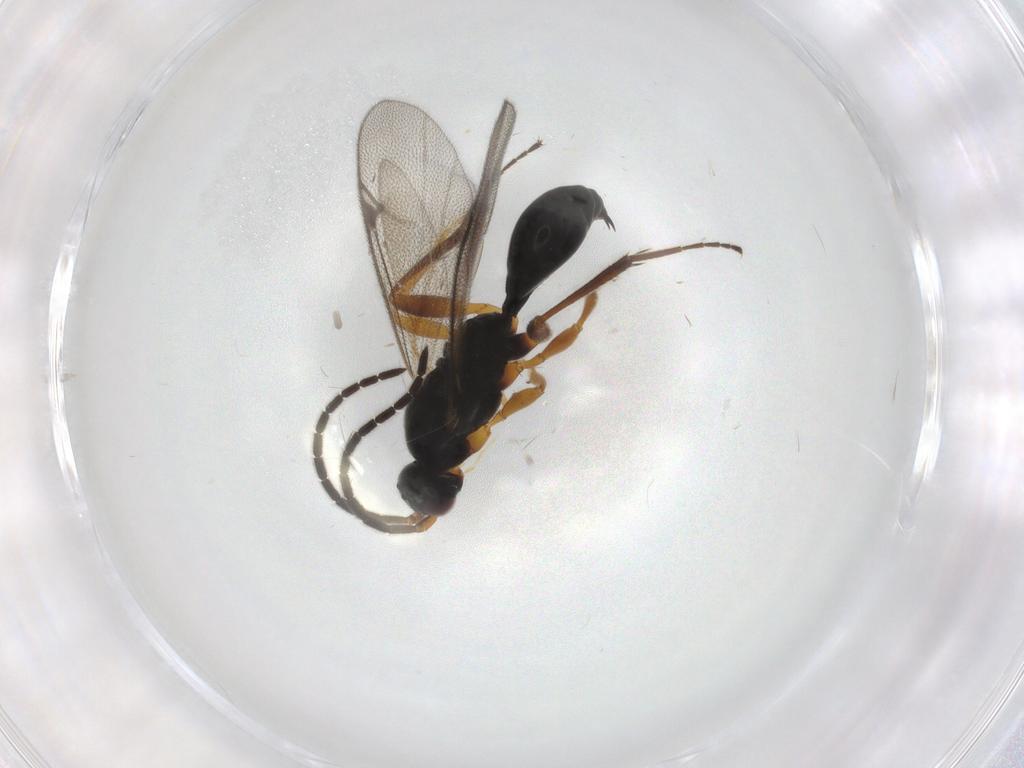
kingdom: Animalia
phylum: Arthropoda
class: Insecta
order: Hymenoptera
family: Proctotrupidae
